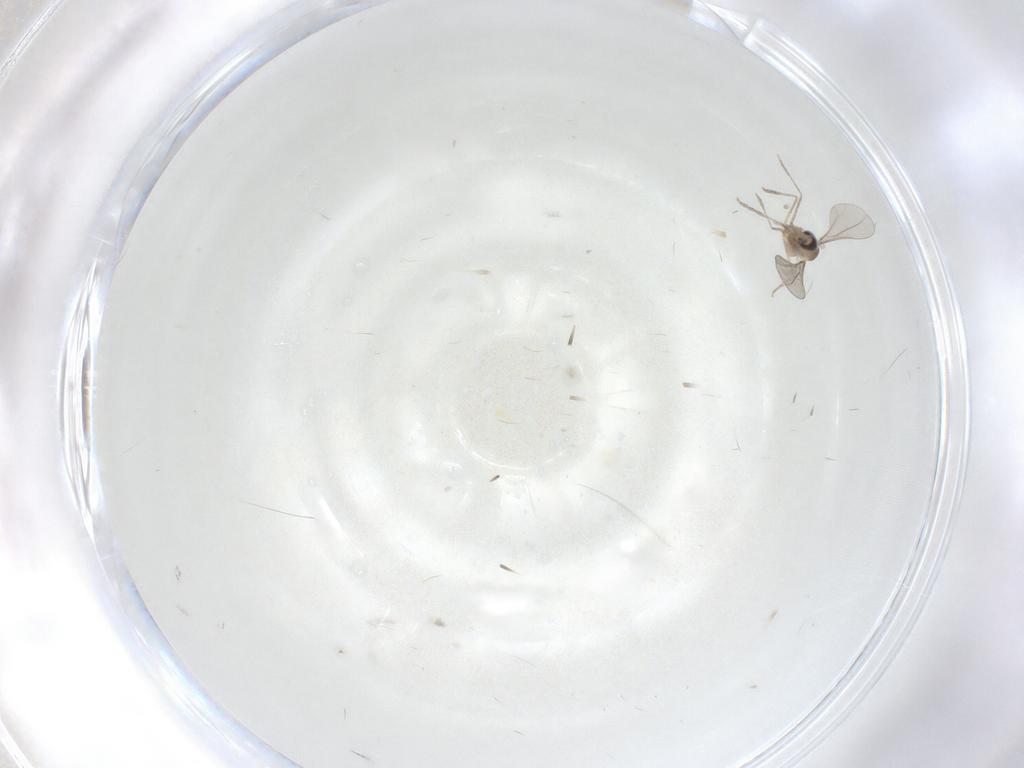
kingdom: Animalia
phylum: Arthropoda
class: Insecta
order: Diptera
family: Cecidomyiidae
